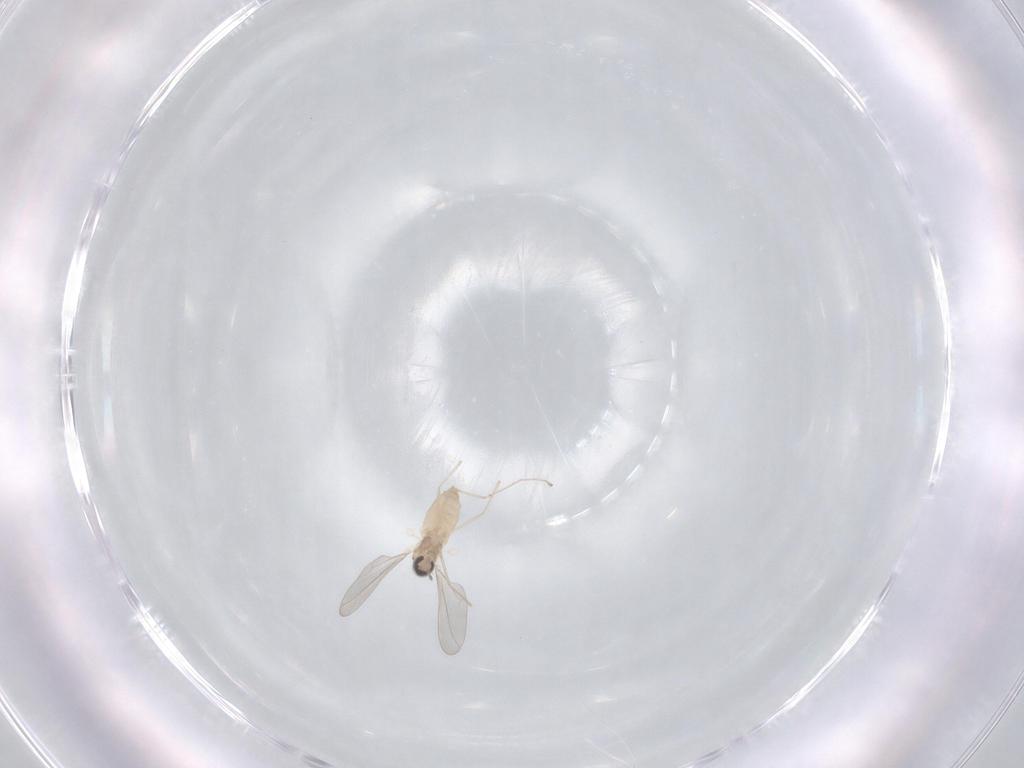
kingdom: Animalia
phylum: Arthropoda
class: Insecta
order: Diptera
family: Cecidomyiidae
